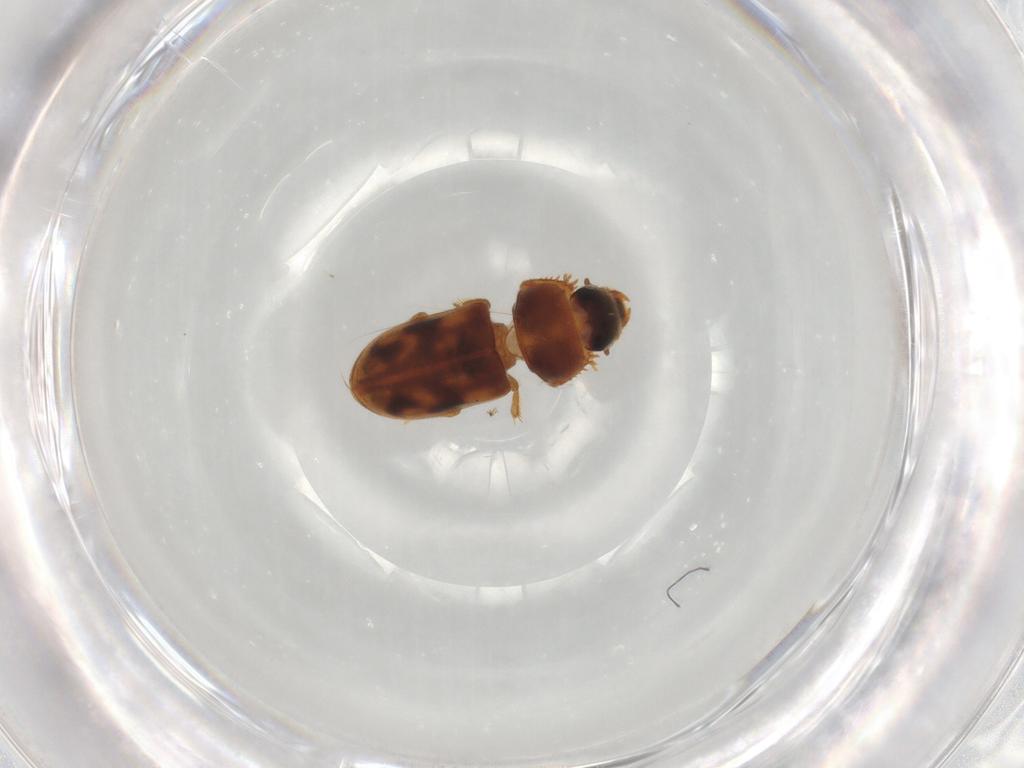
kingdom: Animalia
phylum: Arthropoda
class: Insecta
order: Coleoptera
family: Heteroceridae
